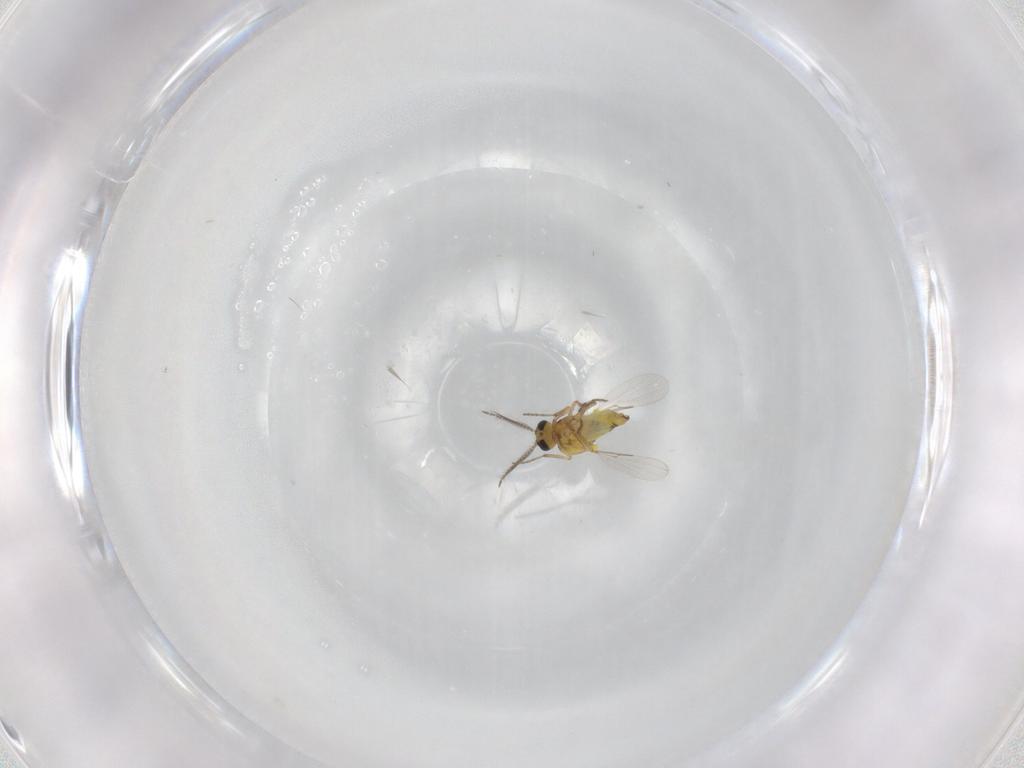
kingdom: Animalia
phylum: Arthropoda
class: Insecta
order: Diptera
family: Ceratopogonidae
